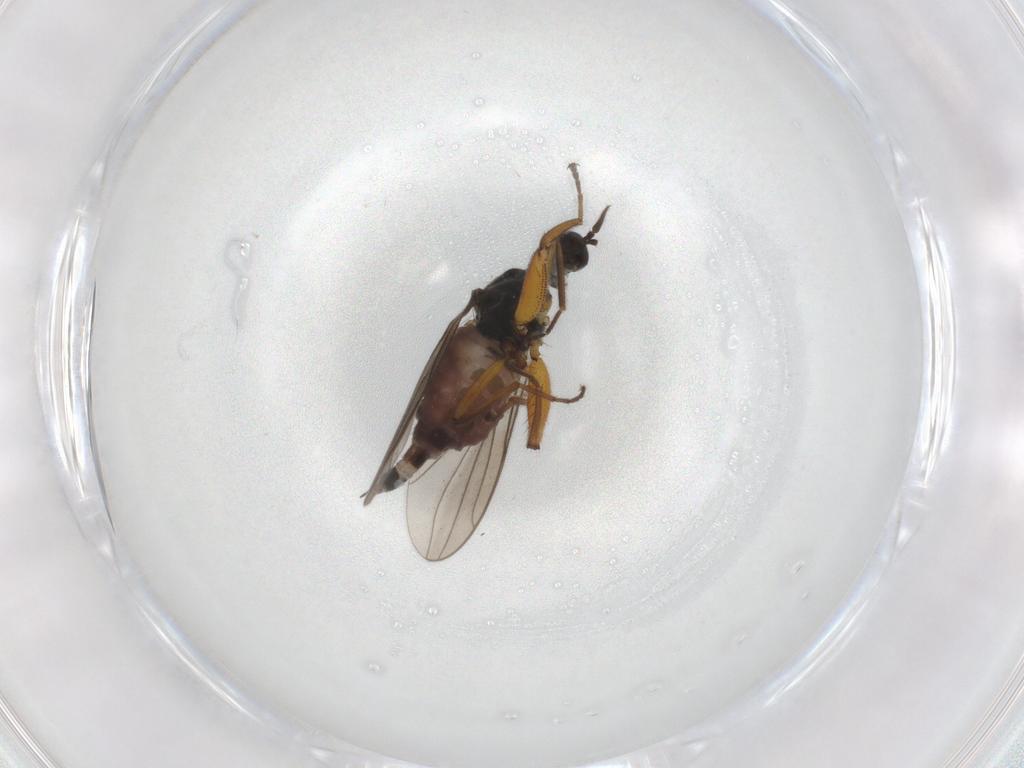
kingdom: Animalia
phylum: Arthropoda
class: Insecta
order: Diptera
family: Hybotidae
